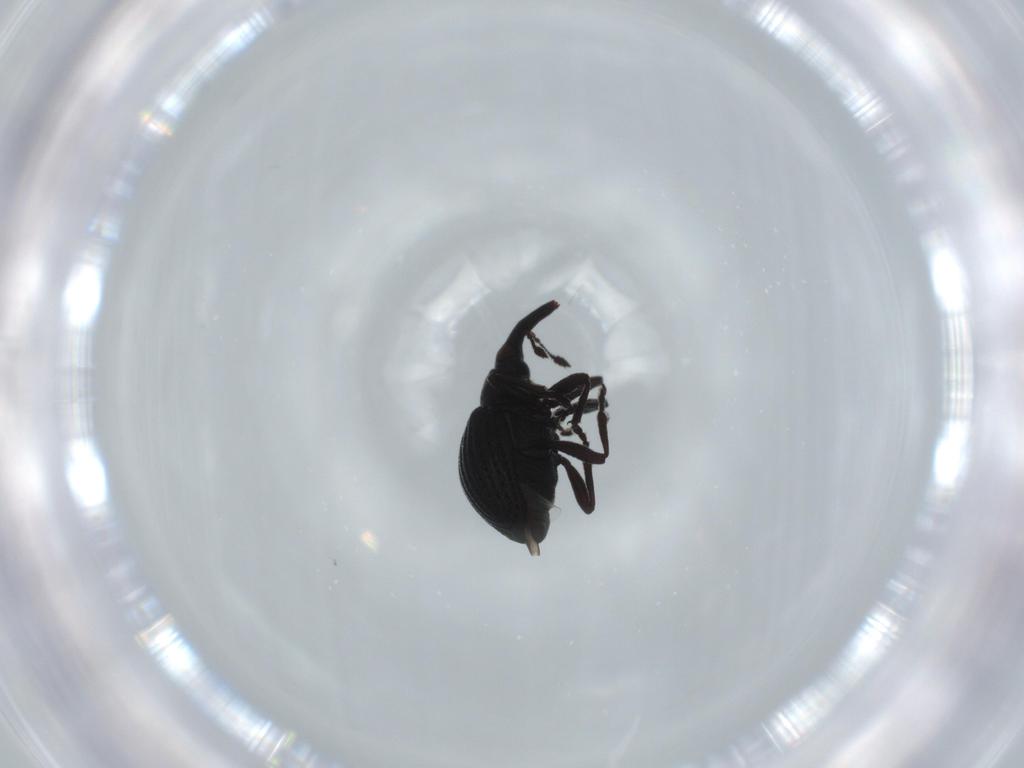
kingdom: Animalia
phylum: Arthropoda
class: Insecta
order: Coleoptera
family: Brentidae
